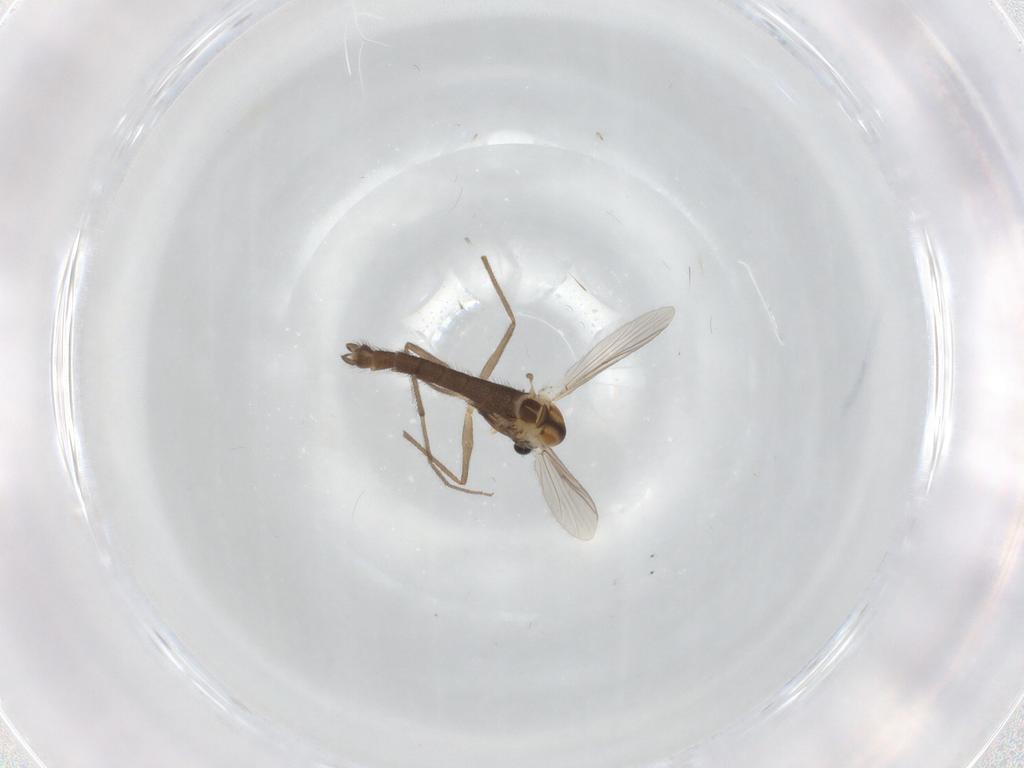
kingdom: Animalia
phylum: Arthropoda
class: Insecta
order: Diptera
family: Chironomidae
